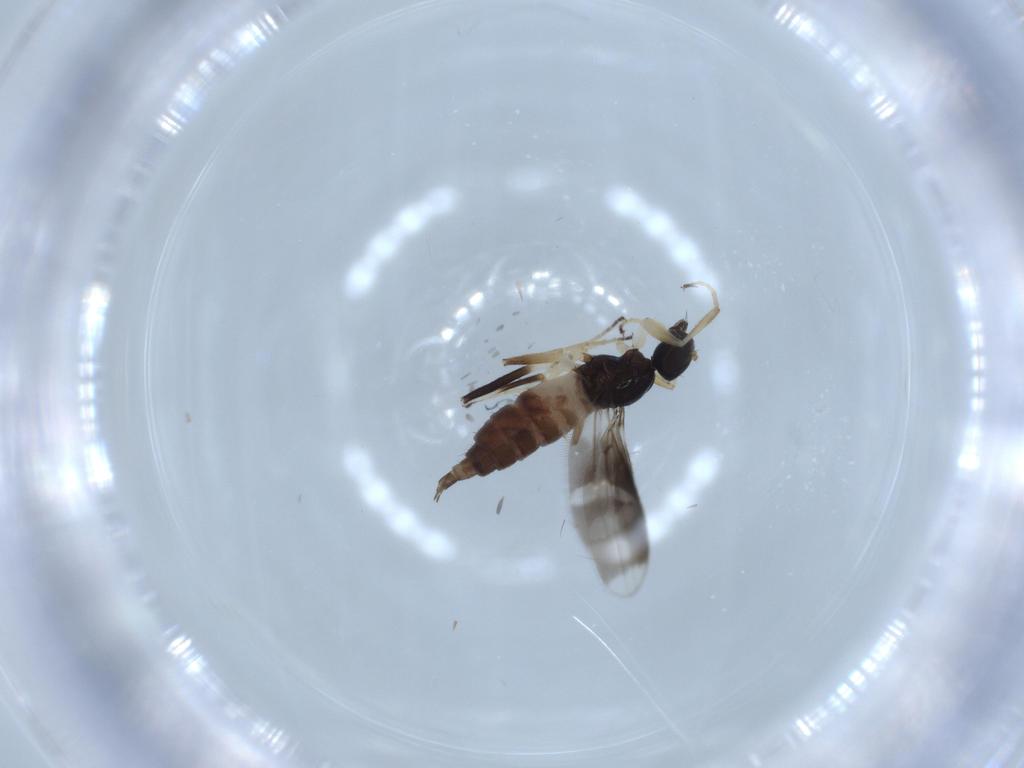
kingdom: Animalia
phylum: Arthropoda
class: Insecta
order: Diptera
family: Hybotidae
